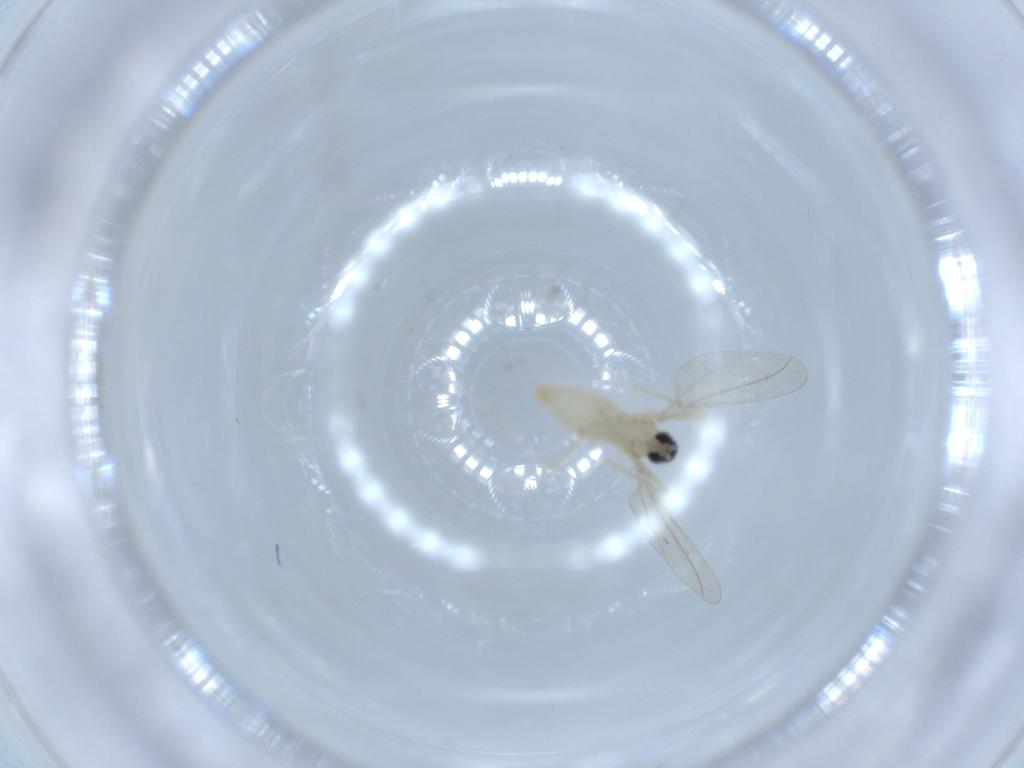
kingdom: Animalia
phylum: Arthropoda
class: Insecta
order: Diptera
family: Cecidomyiidae
